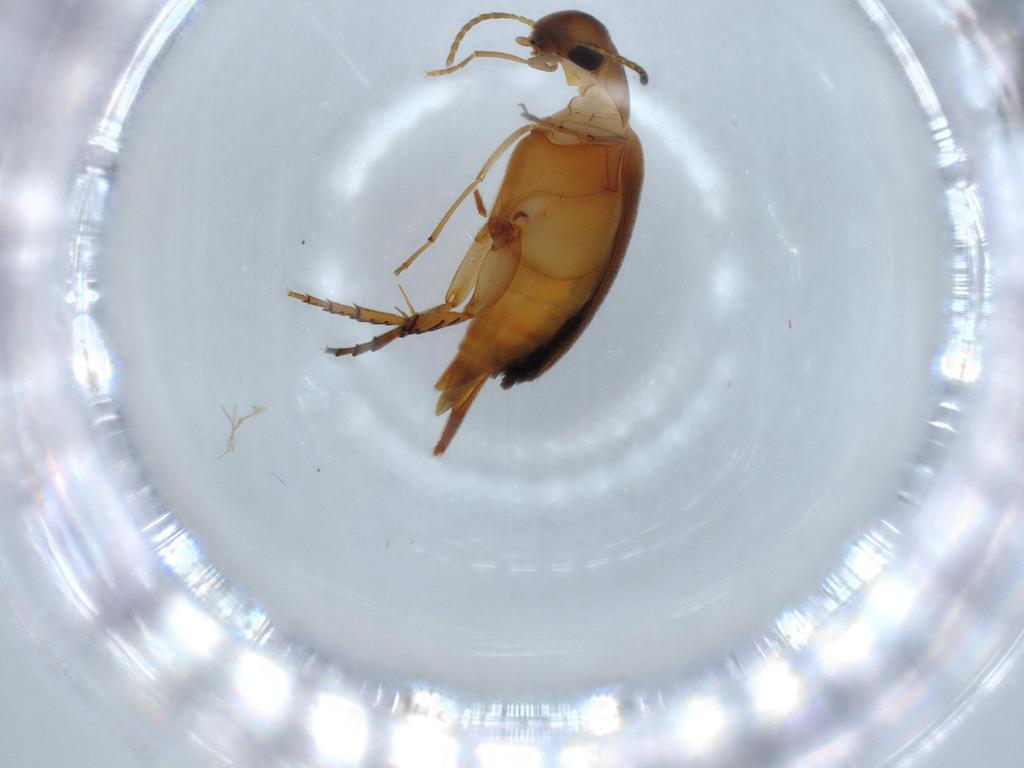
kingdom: Animalia
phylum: Arthropoda
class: Insecta
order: Coleoptera
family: Mordellidae
